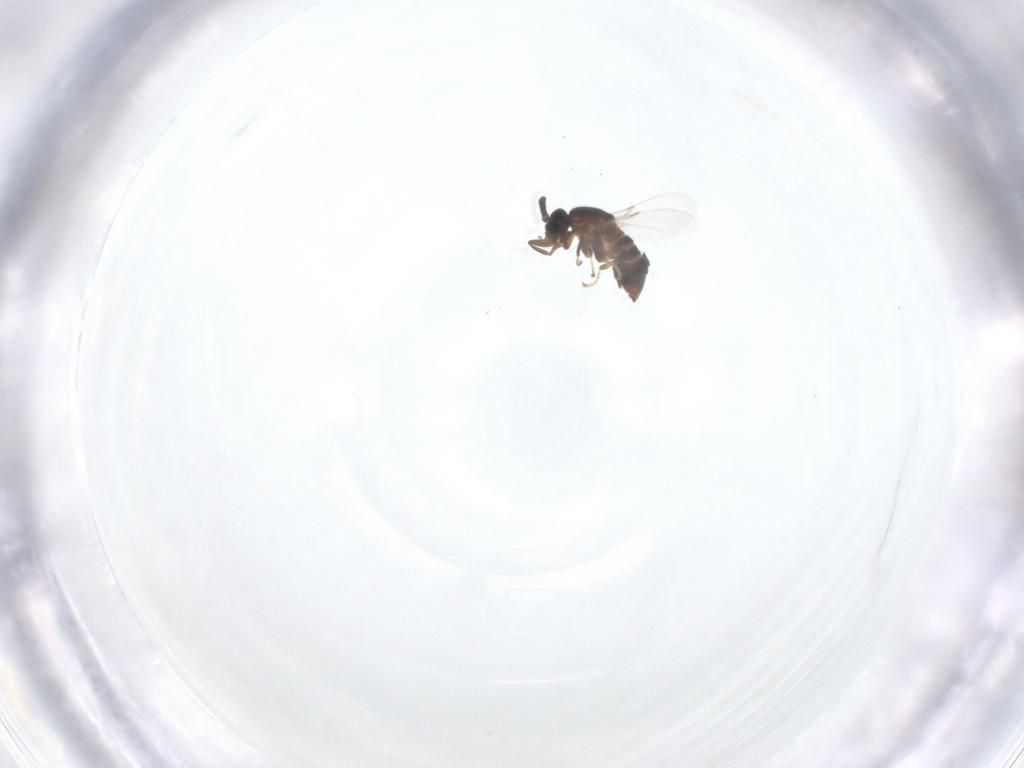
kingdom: Animalia
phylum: Arthropoda
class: Insecta
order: Diptera
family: Scatopsidae
